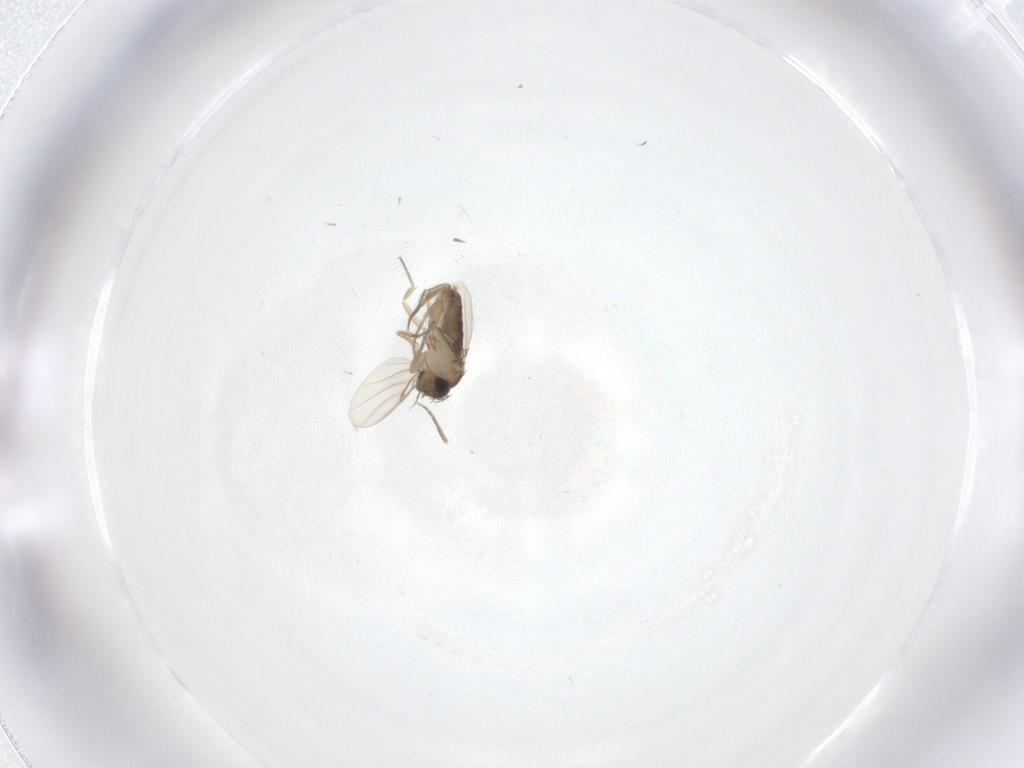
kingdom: Animalia
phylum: Arthropoda
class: Insecta
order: Diptera
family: Phoridae
